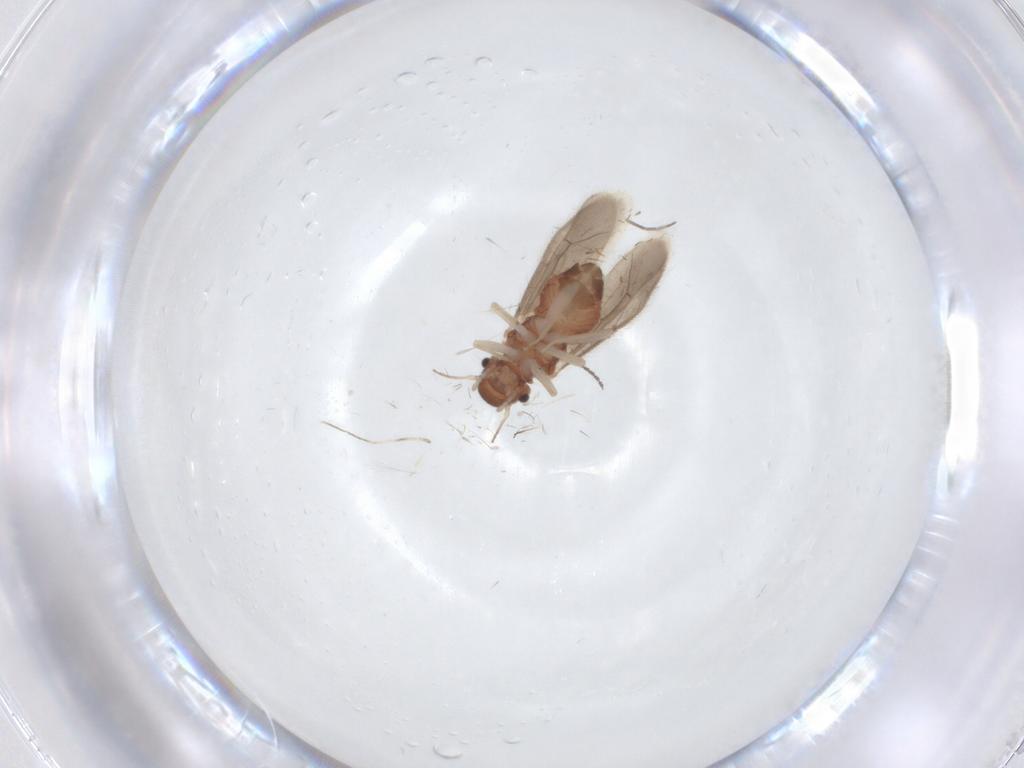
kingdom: Animalia
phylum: Arthropoda
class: Insecta
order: Psocodea
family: Archipsocidae
